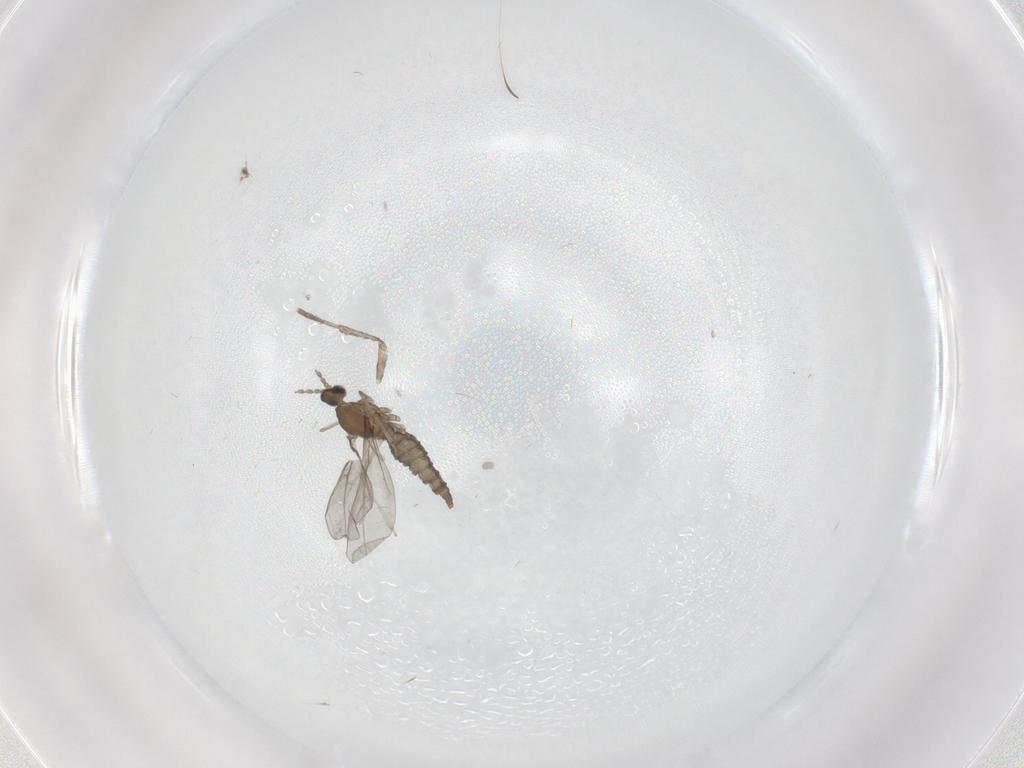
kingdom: Animalia
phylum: Arthropoda
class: Insecta
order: Diptera
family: Cecidomyiidae
